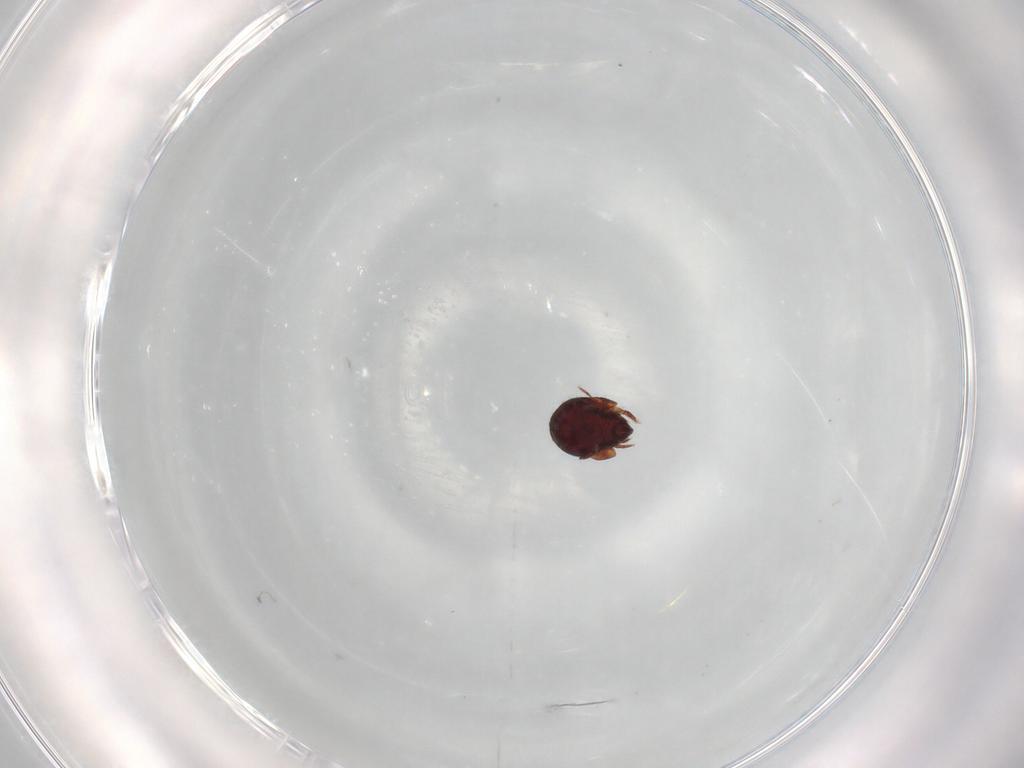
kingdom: Animalia
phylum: Arthropoda
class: Arachnida
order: Sarcoptiformes
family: Humerobatidae
